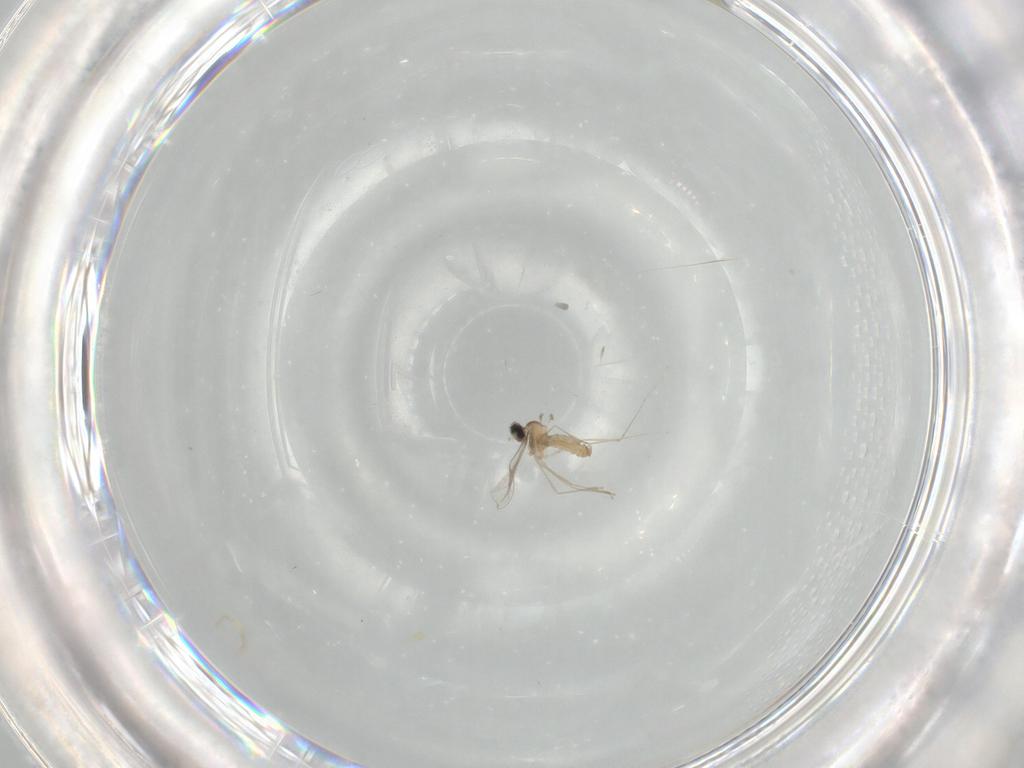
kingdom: Animalia
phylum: Arthropoda
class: Insecta
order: Diptera
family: Cecidomyiidae
